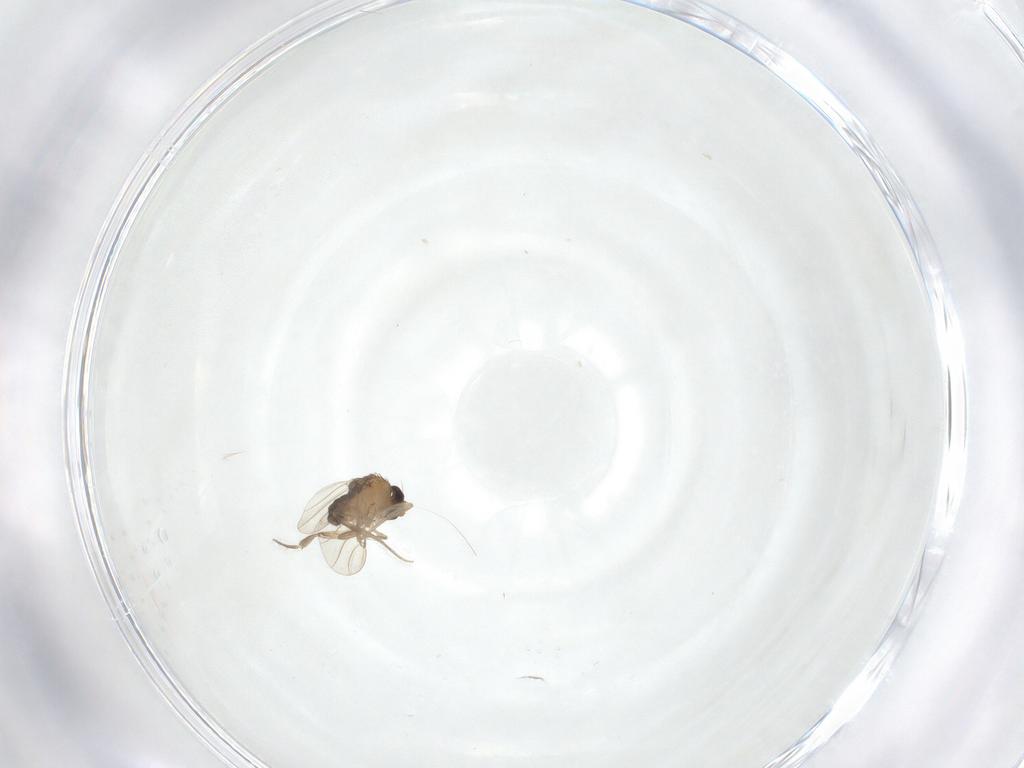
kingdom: Animalia
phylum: Arthropoda
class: Insecta
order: Diptera
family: Phoridae
